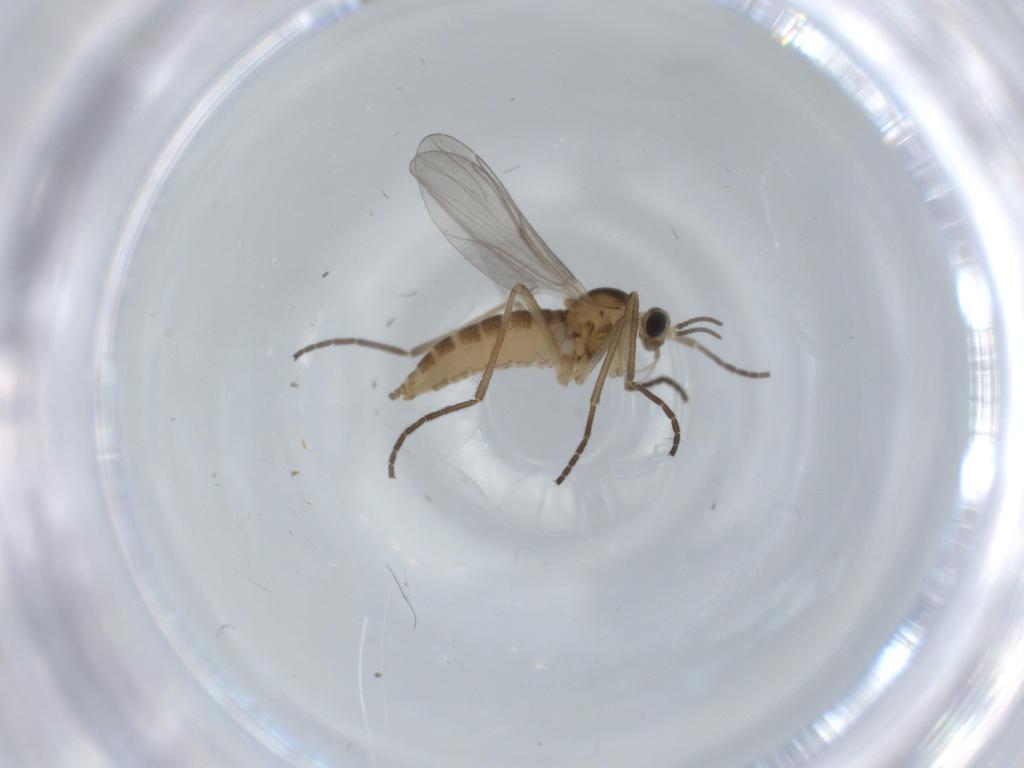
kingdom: Animalia
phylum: Arthropoda
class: Insecta
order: Diptera
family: Cecidomyiidae
